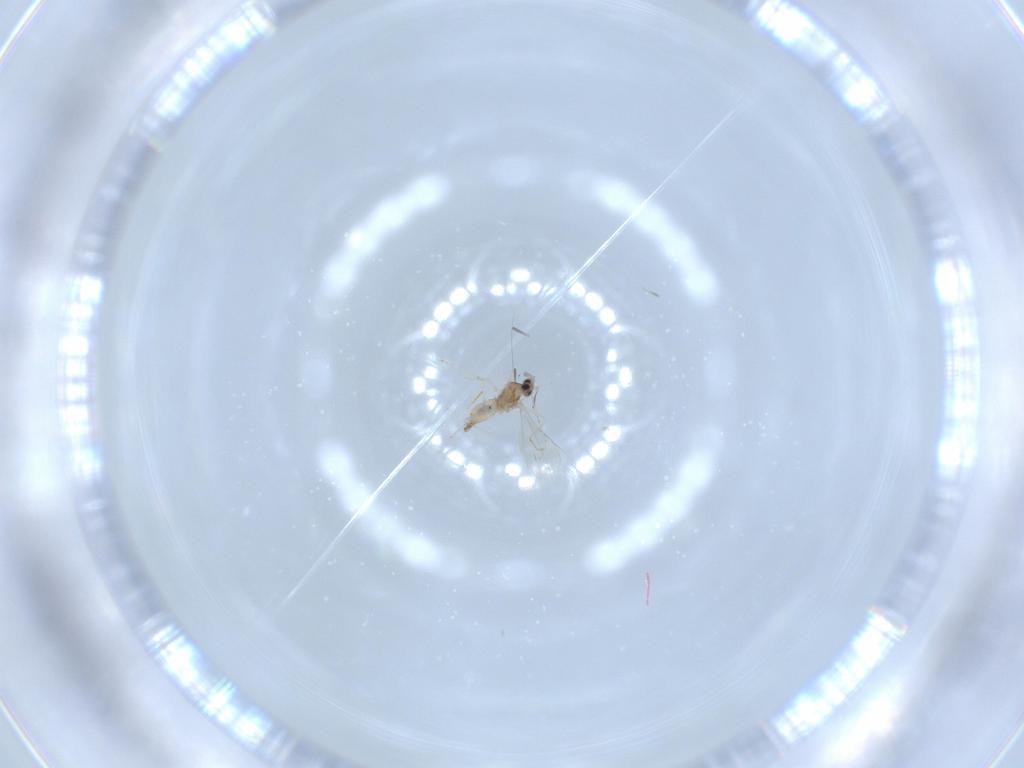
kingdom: Animalia
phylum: Arthropoda
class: Insecta
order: Diptera
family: Cecidomyiidae
